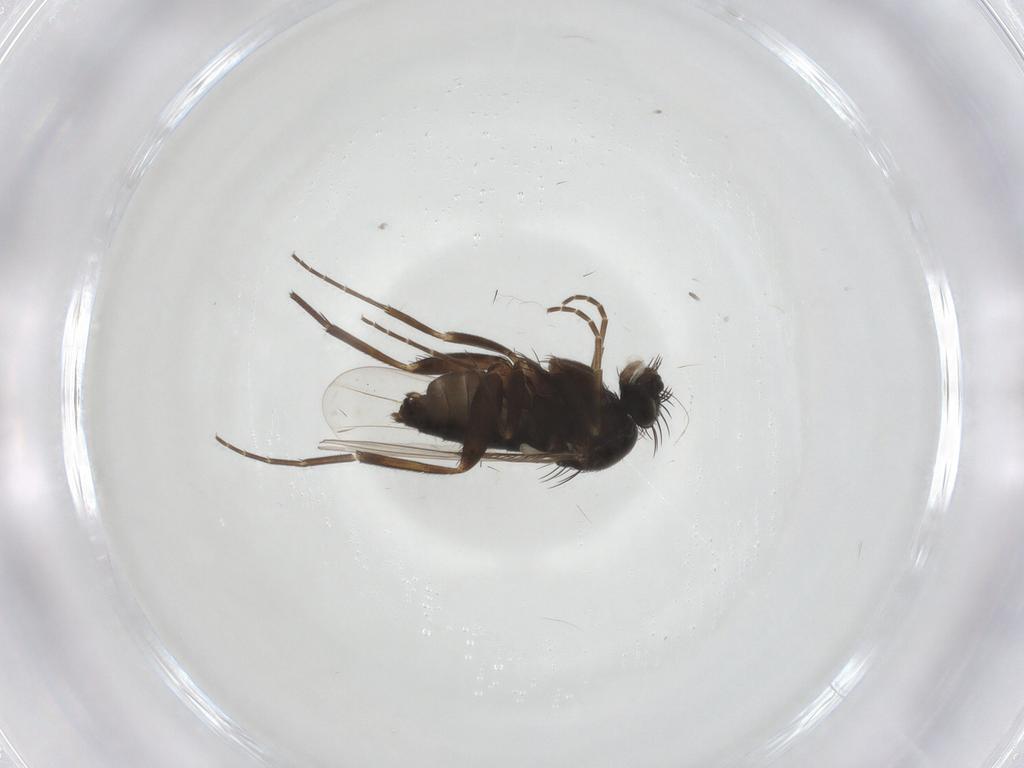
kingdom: Animalia
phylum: Arthropoda
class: Insecta
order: Diptera
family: Phoridae
